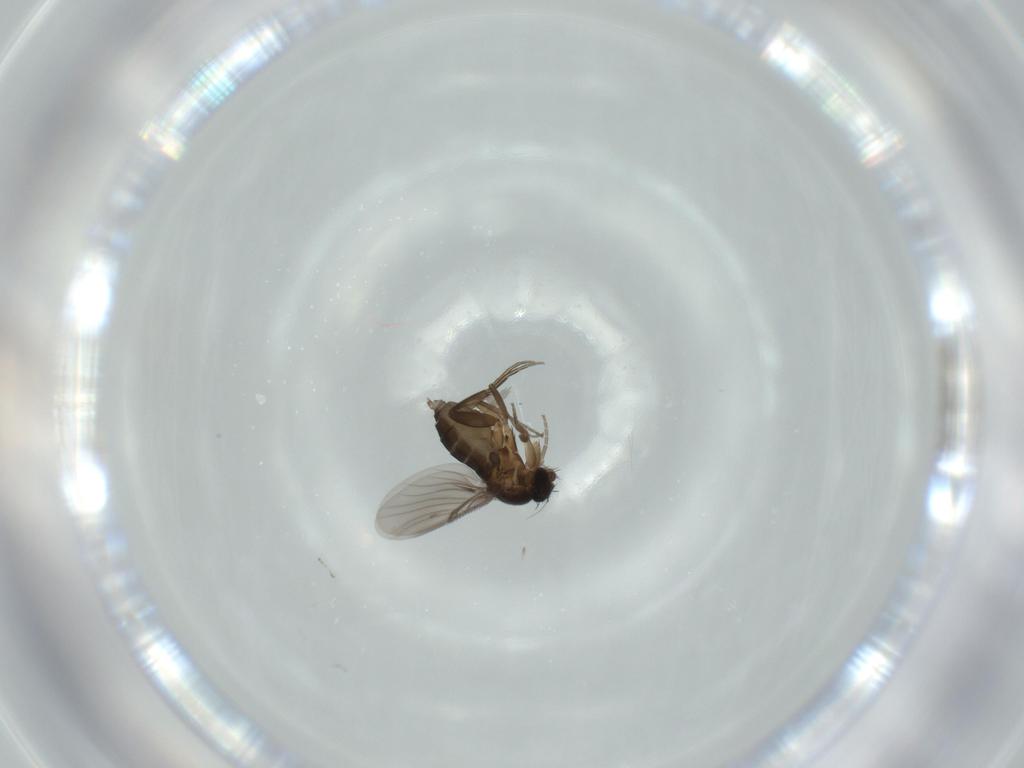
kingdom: Animalia
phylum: Arthropoda
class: Insecta
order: Diptera
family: Phoridae
